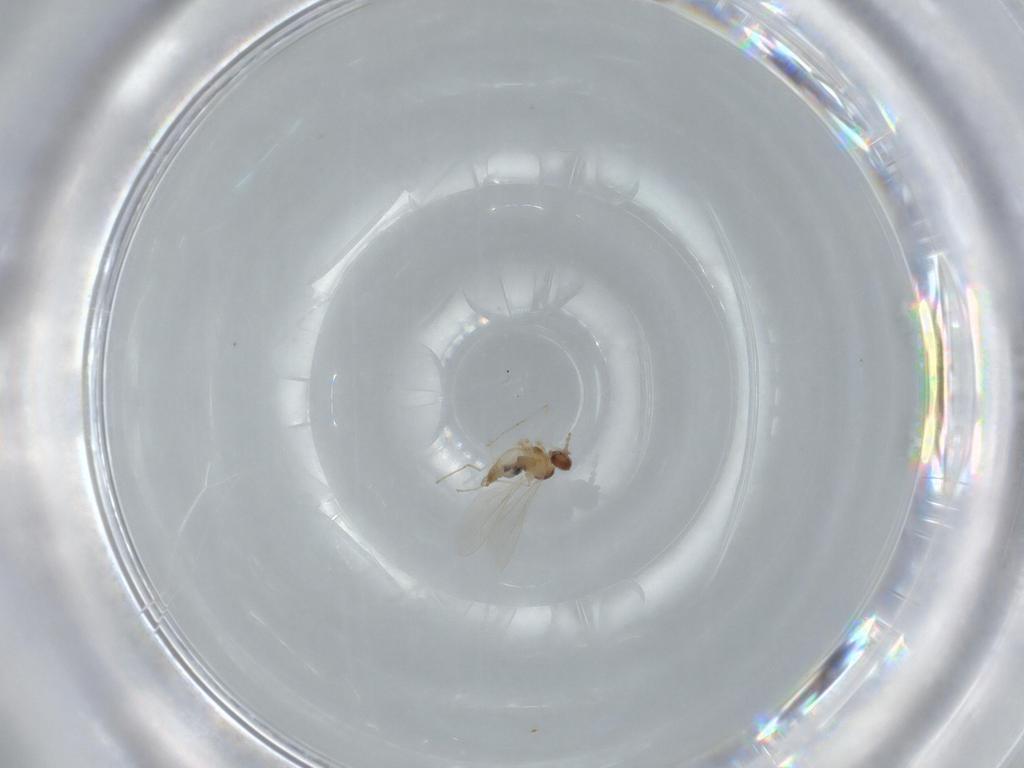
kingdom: Animalia
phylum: Arthropoda
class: Insecta
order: Diptera
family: Cecidomyiidae
